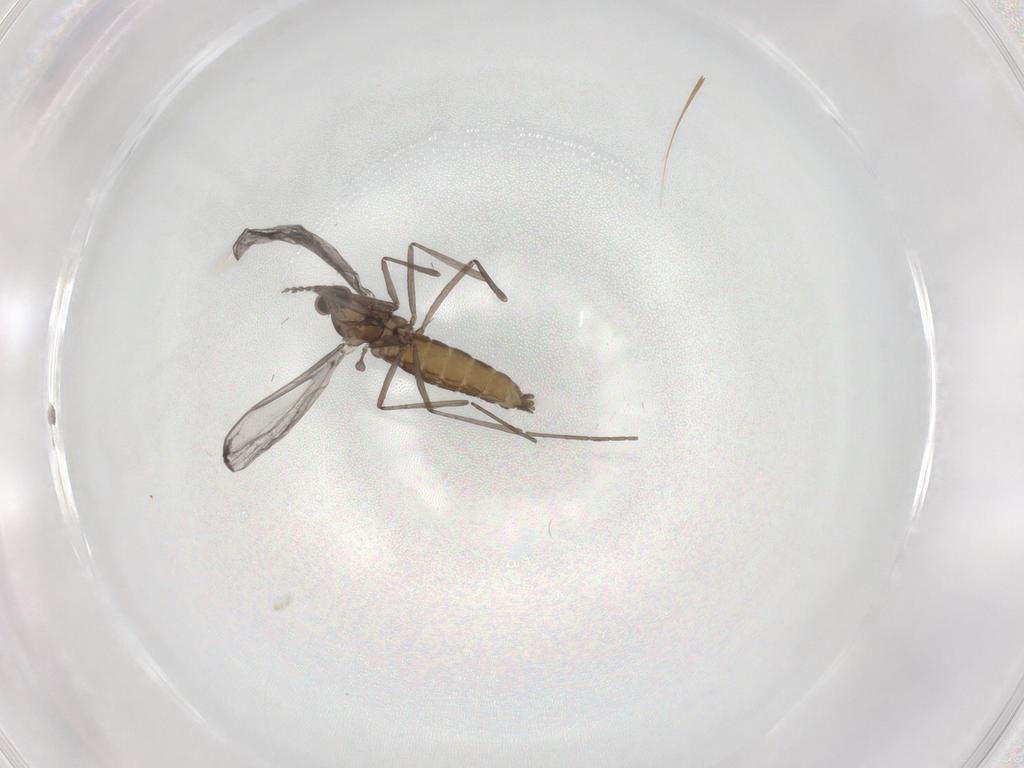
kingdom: Animalia
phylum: Arthropoda
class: Insecta
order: Diptera
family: Cecidomyiidae
